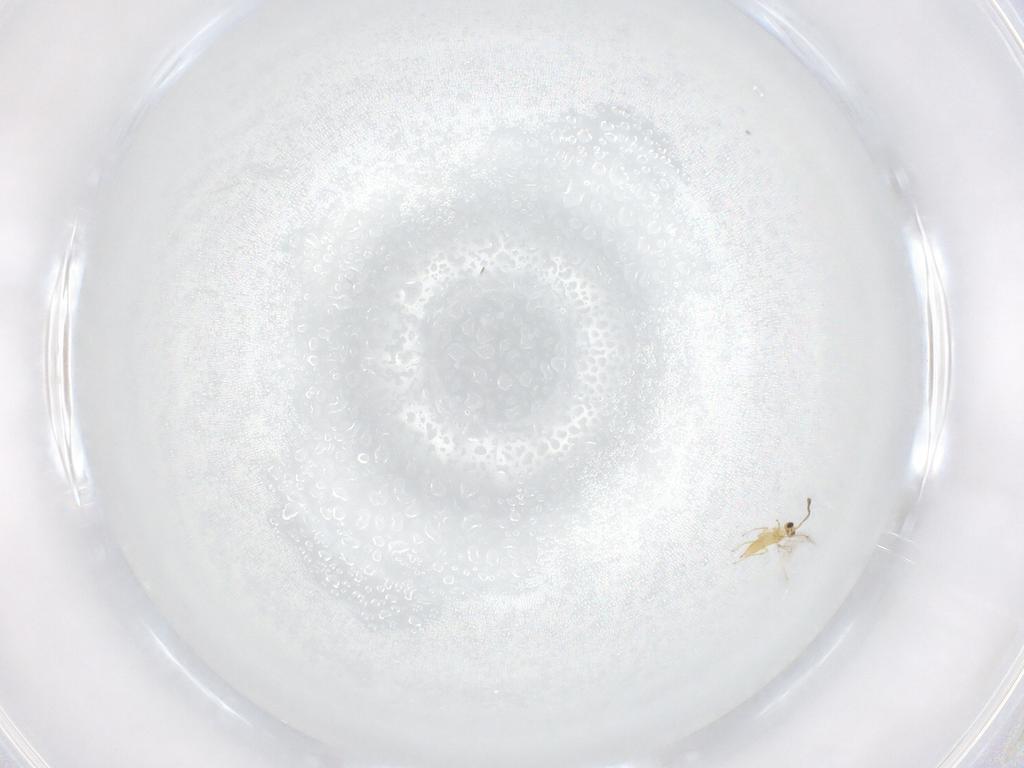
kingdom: Animalia
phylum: Arthropoda
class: Insecta
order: Hymenoptera
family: Mymaridae
